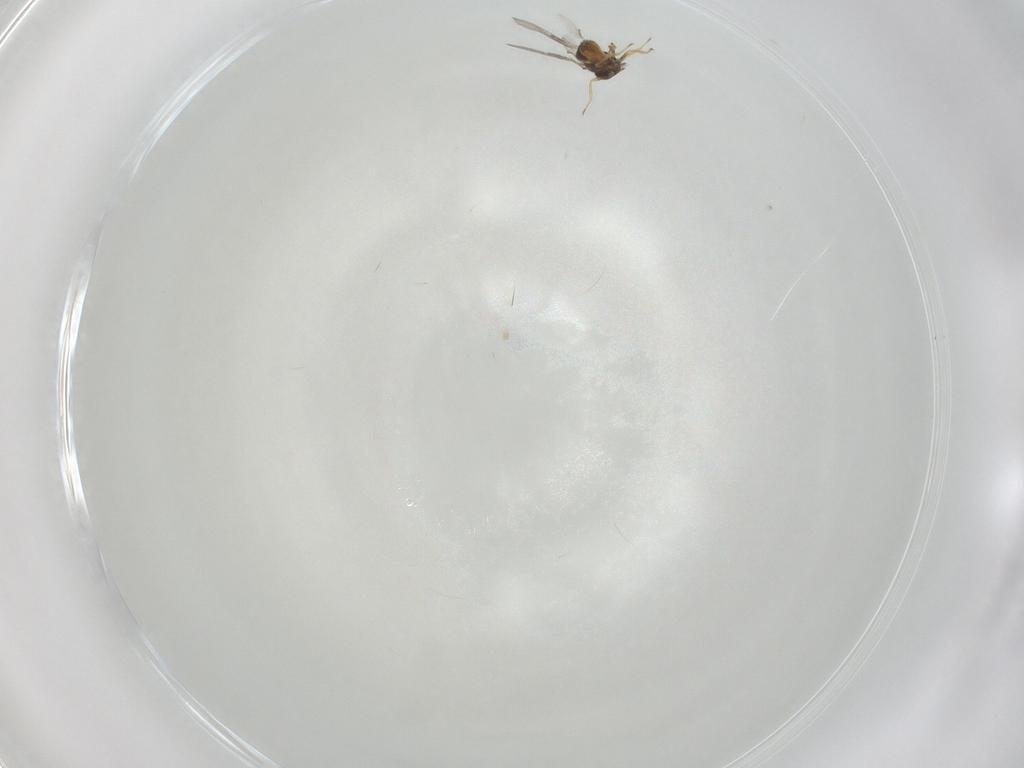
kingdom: Animalia
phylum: Arthropoda
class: Insecta
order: Hymenoptera
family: Trichogrammatidae
